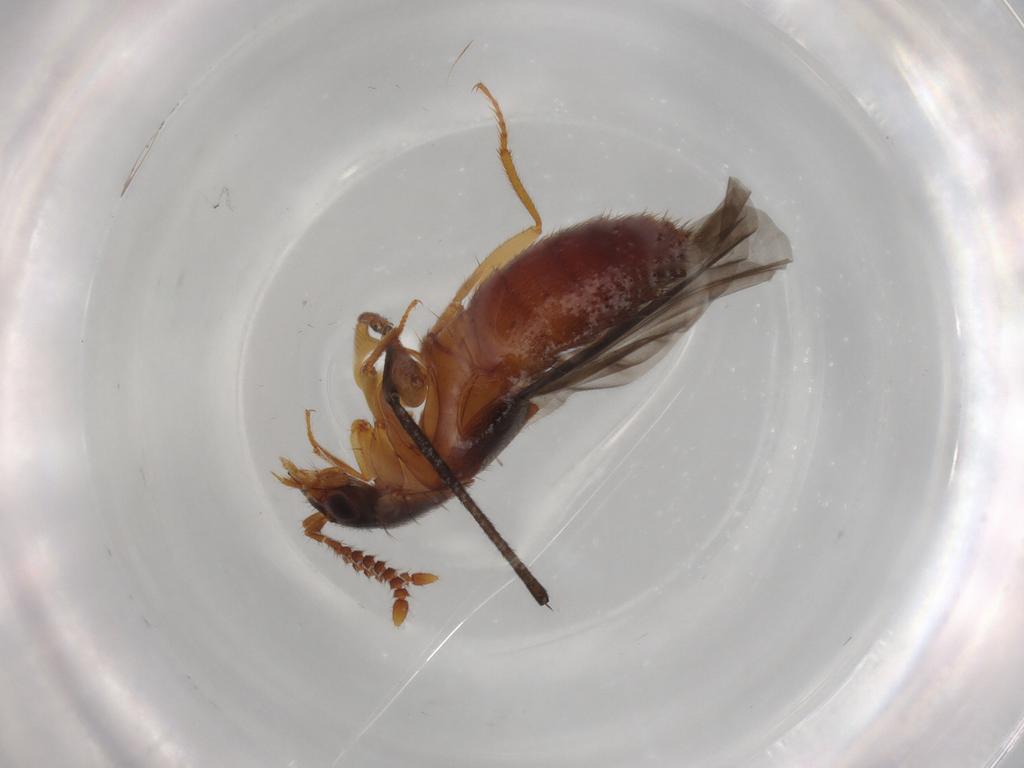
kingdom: Animalia
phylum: Arthropoda
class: Insecta
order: Coleoptera
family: Staphylinidae
